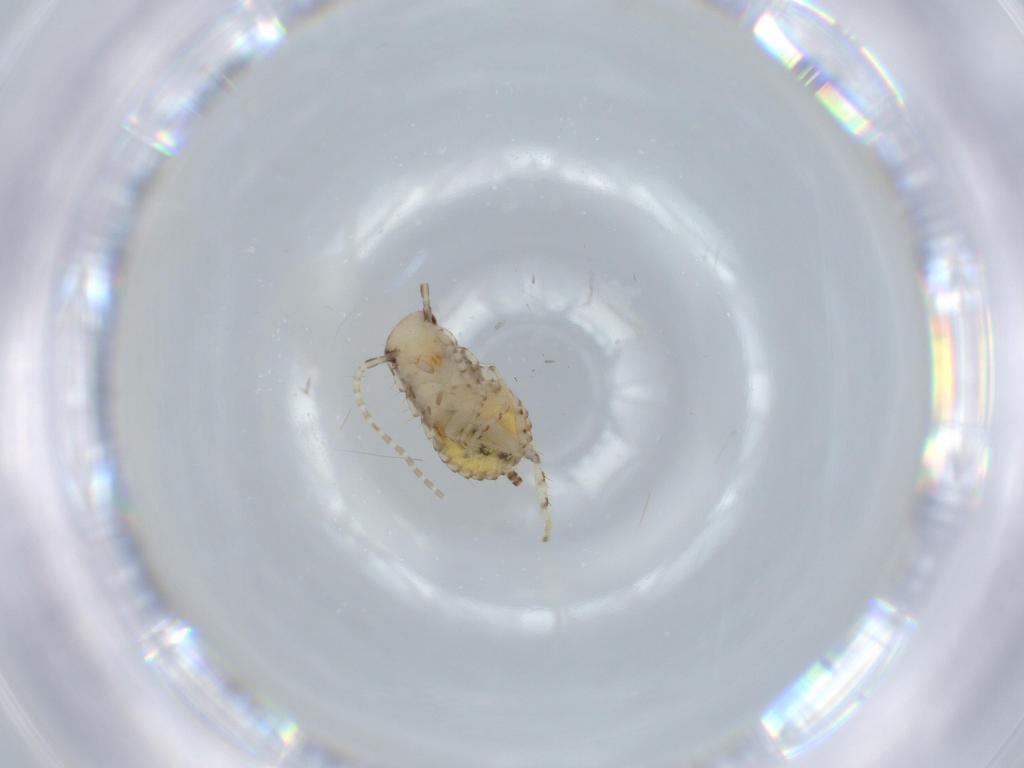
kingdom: Animalia
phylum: Arthropoda
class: Insecta
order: Blattodea
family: Ectobiidae
